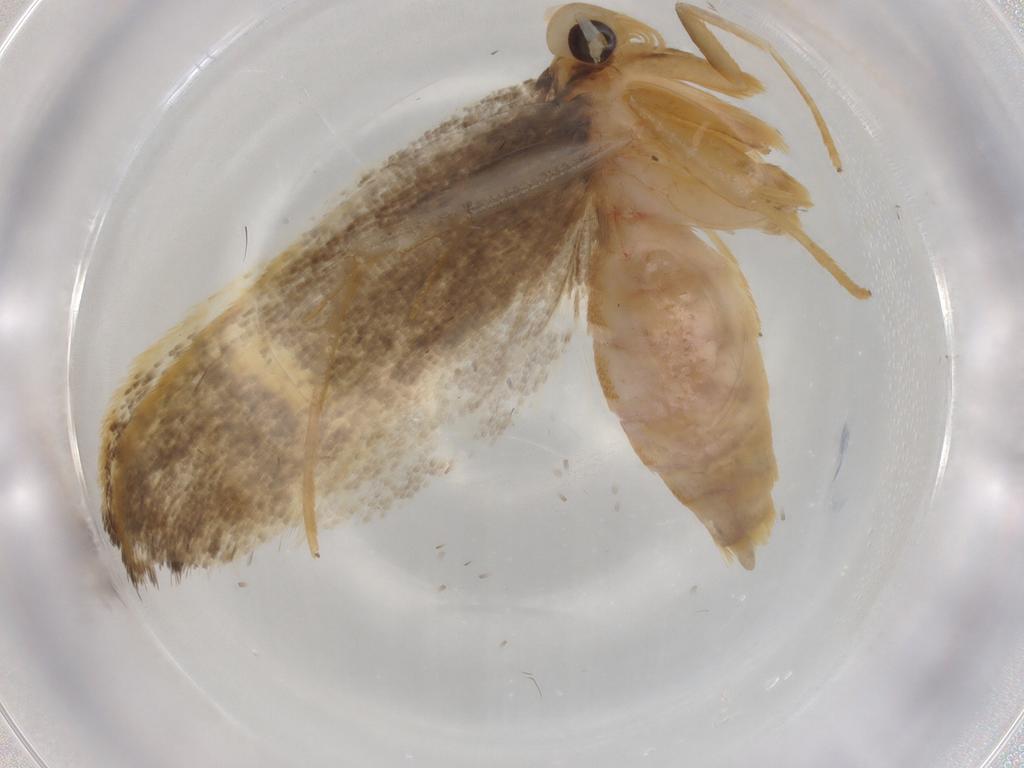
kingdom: Animalia
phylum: Arthropoda
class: Insecta
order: Lepidoptera
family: Lecithoceridae
